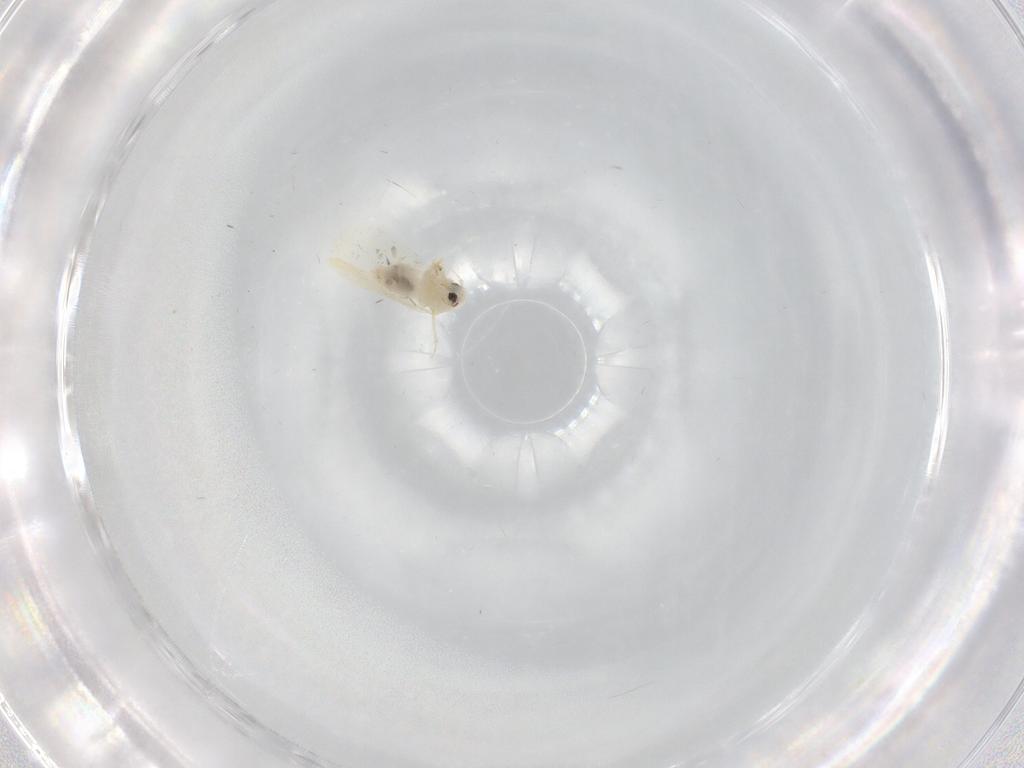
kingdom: Animalia
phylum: Arthropoda
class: Insecta
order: Hemiptera
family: Aleyrodidae
